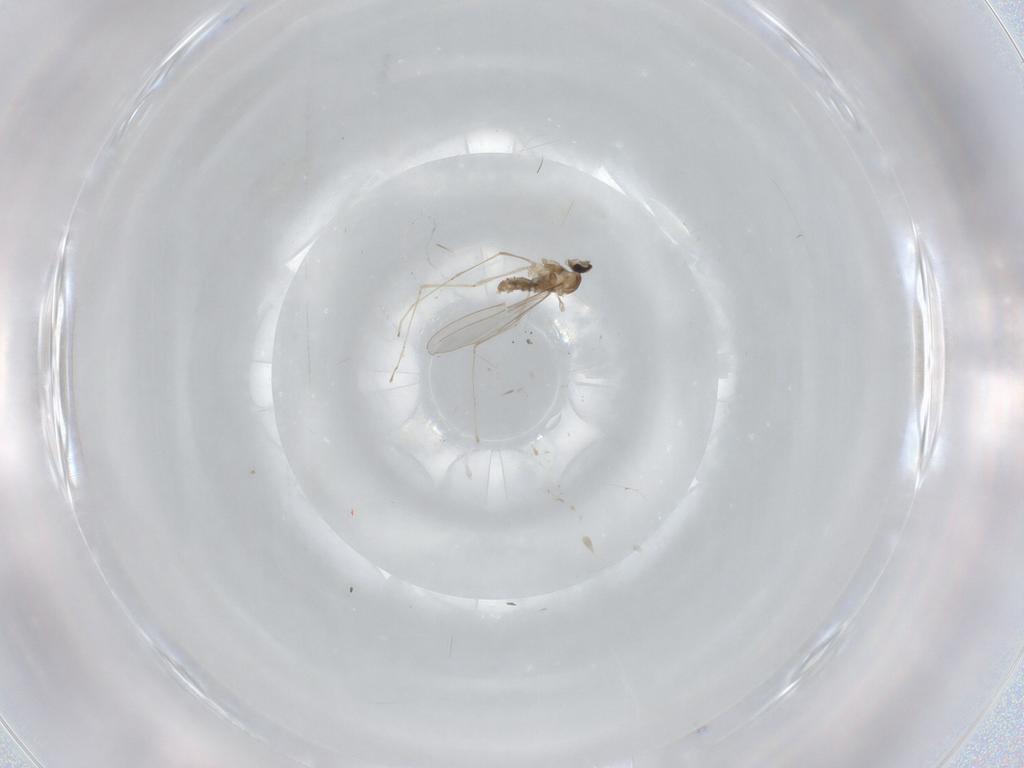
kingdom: Animalia
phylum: Arthropoda
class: Insecta
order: Diptera
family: Cecidomyiidae
